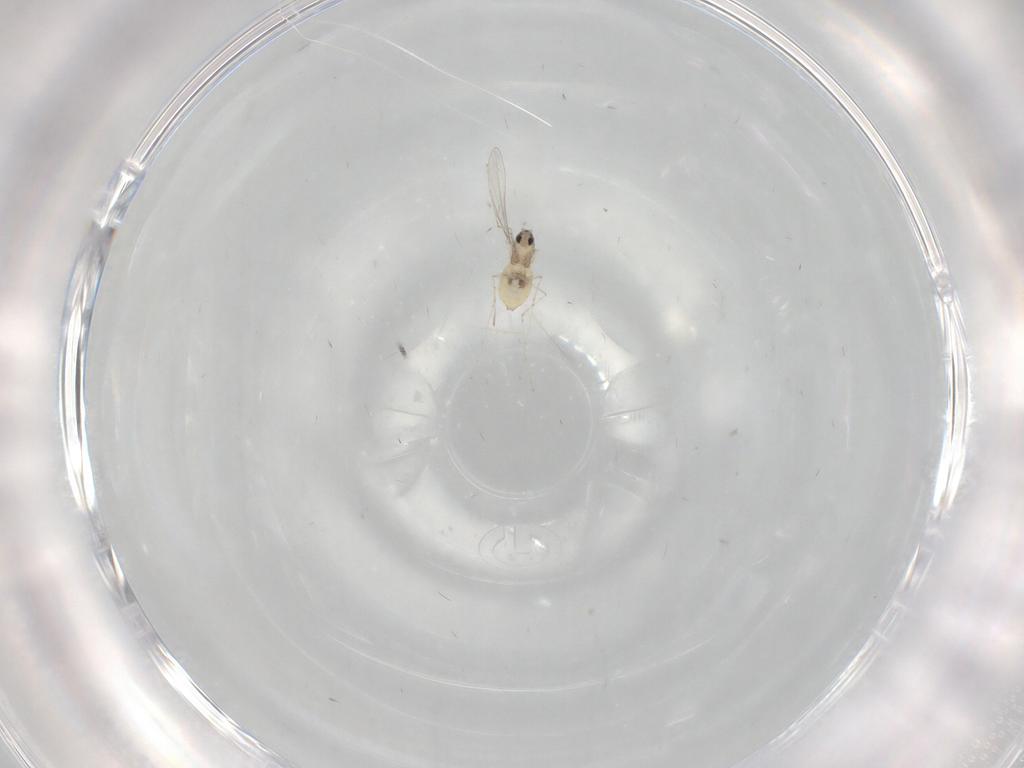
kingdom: Animalia
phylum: Arthropoda
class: Insecta
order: Diptera
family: Cecidomyiidae
